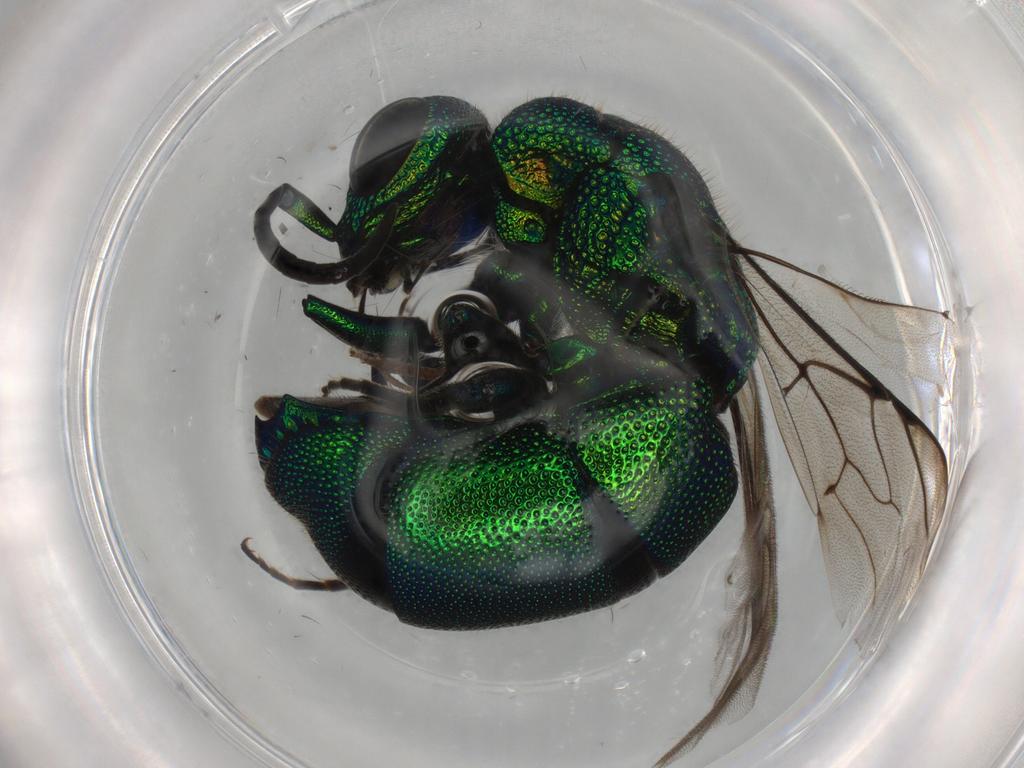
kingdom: Animalia
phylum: Arthropoda
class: Insecta
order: Hymenoptera
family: Chrysididae
